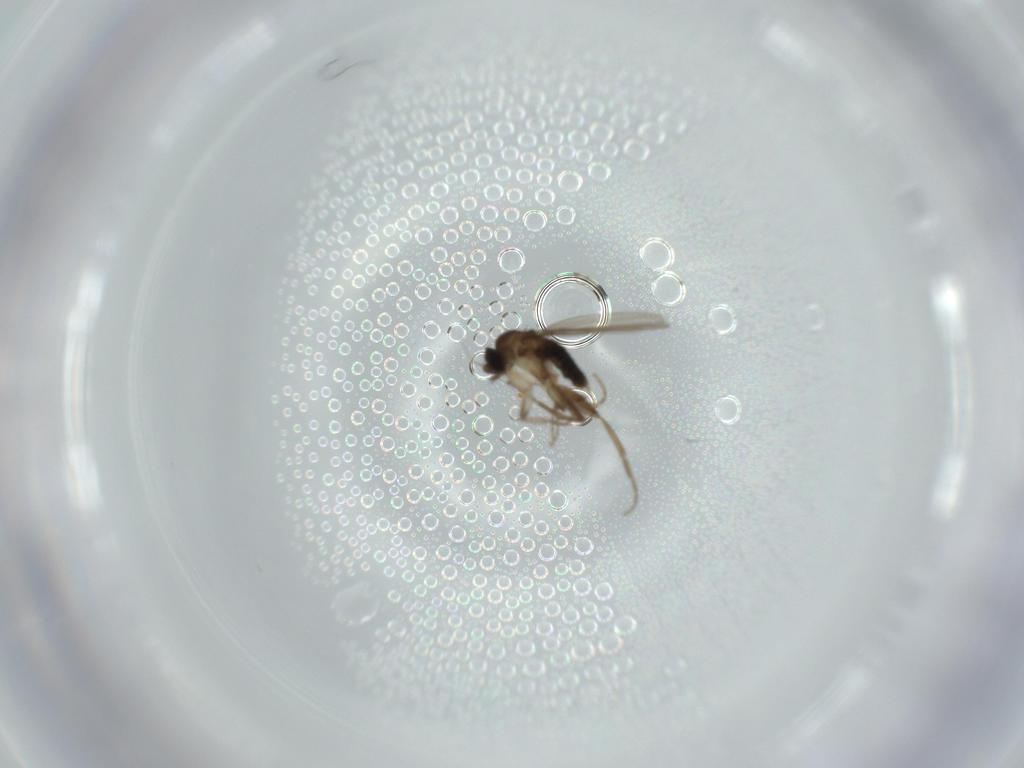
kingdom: Animalia
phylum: Arthropoda
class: Insecta
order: Diptera
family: Phoridae
